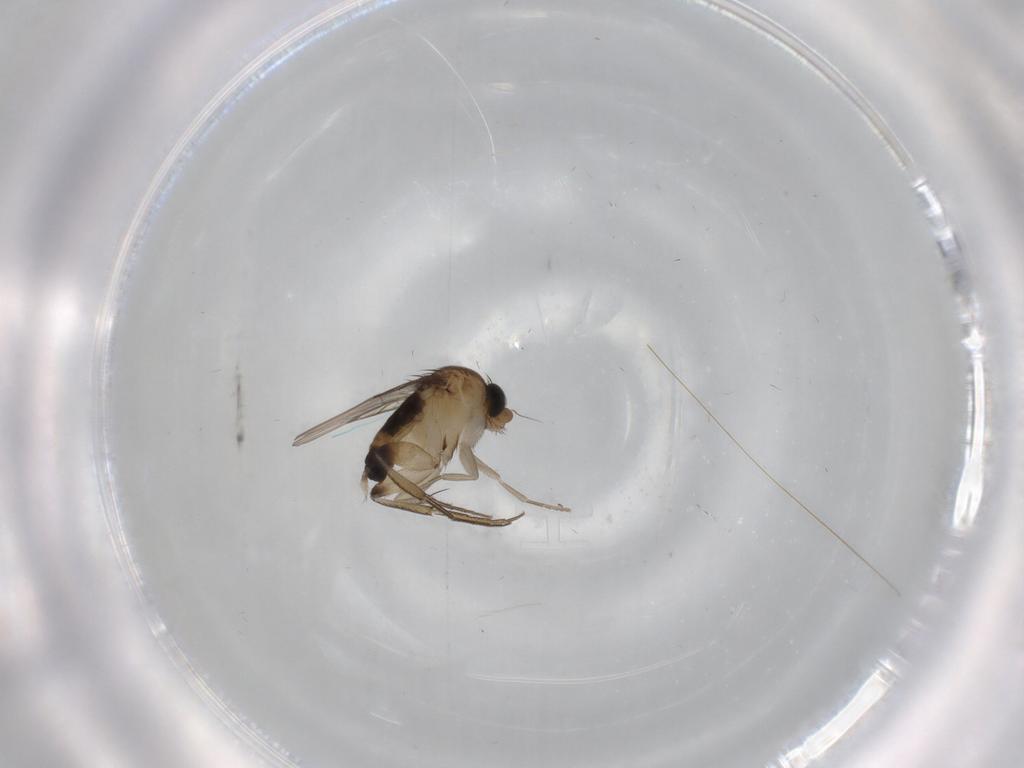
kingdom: Animalia
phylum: Arthropoda
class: Insecta
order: Diptera
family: Phoridae
